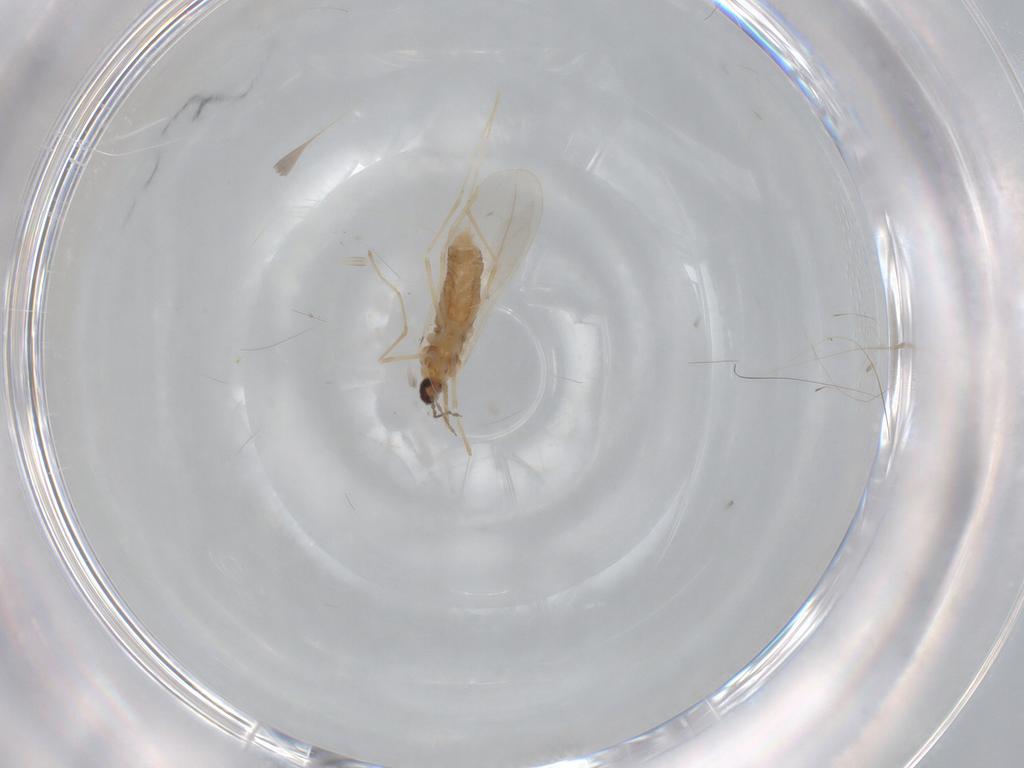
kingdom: Animalia
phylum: Arthropoda
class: Insecta
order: Diptera
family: Cecidomyiidae
